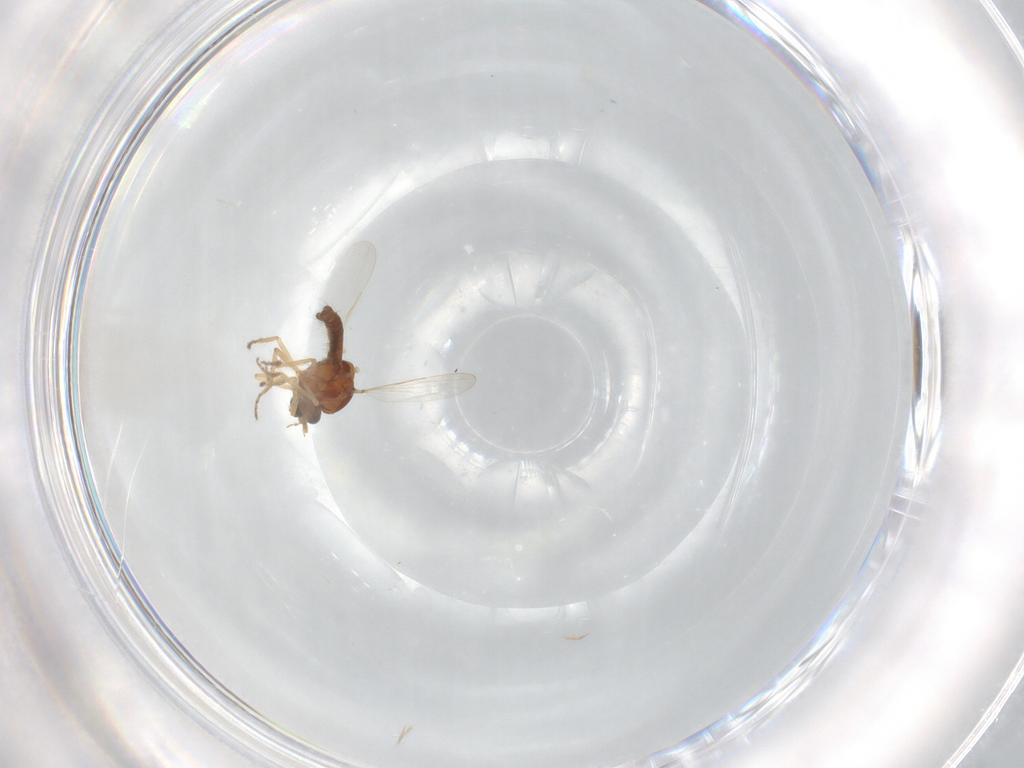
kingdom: Animalia
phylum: Arthropoda
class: Insecta
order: Diptera
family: Ceratopogonidae
